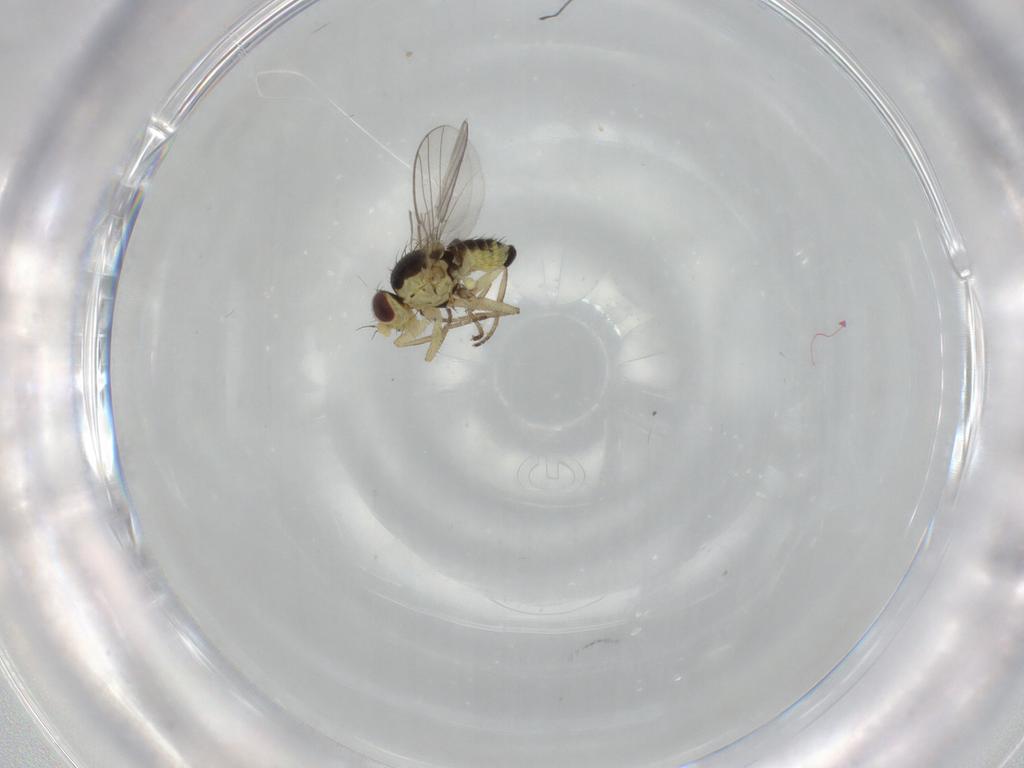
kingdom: Animalia
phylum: Arthropoda
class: Insecta
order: Diptera
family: Agromyzidae
